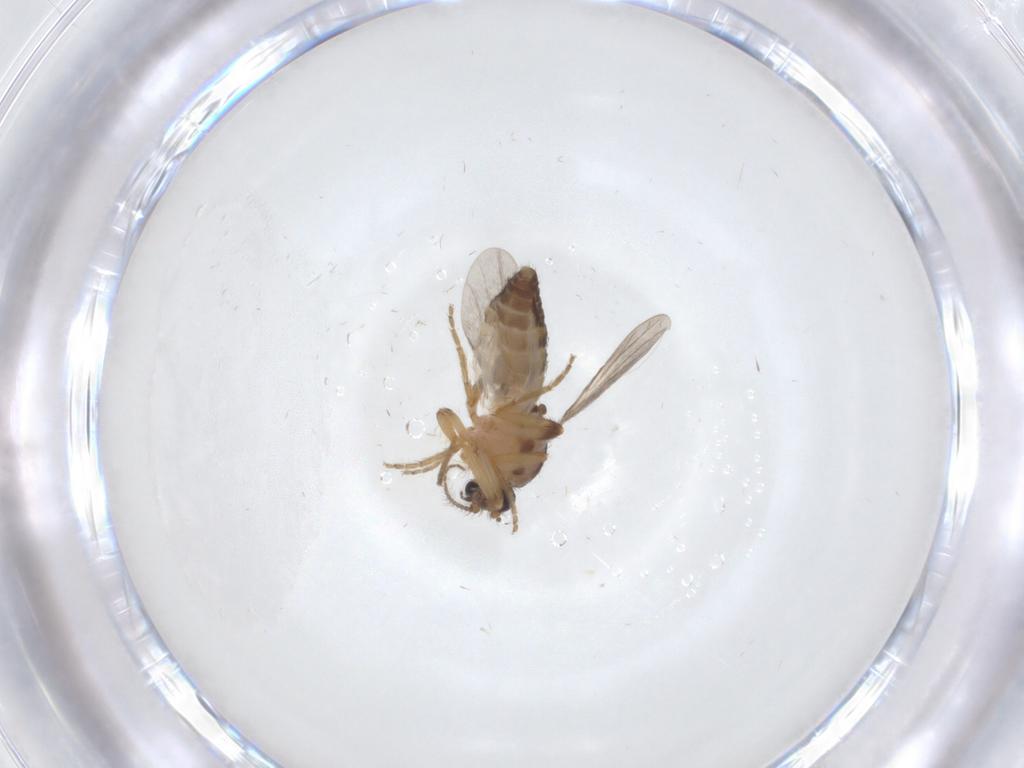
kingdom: Animalia
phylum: Arthropoda
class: Insecta
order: Diptera
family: Ceratopogonidae
